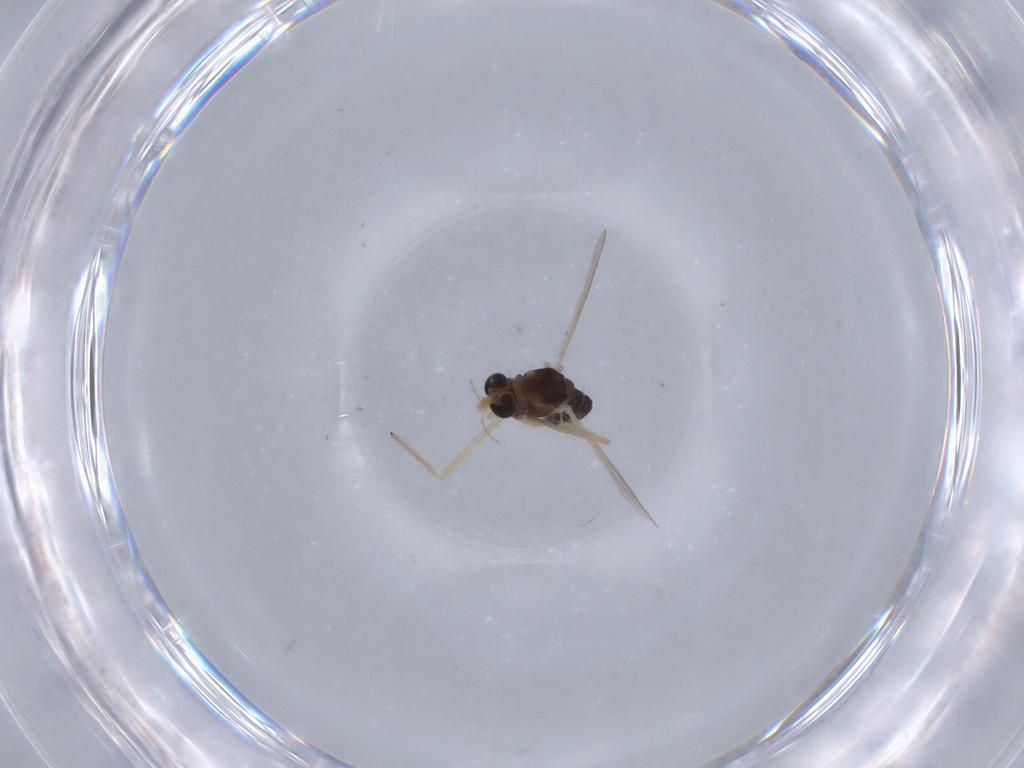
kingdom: Animalia
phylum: Arthropoda
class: Insecta
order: Diptera
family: Chironomidae
